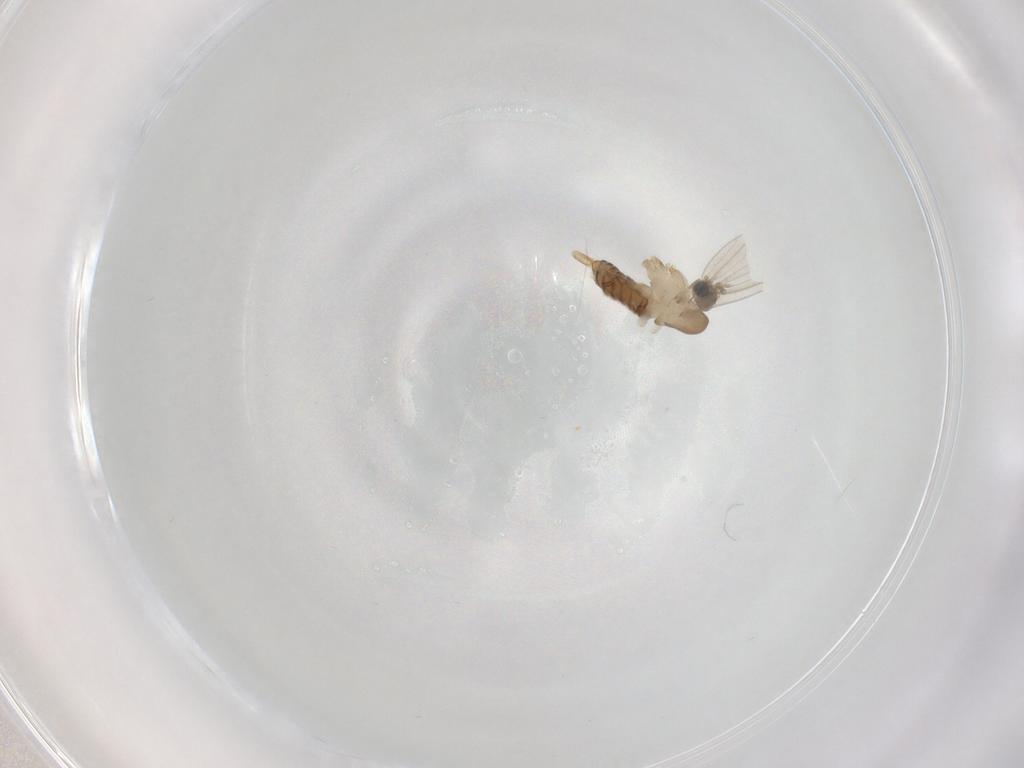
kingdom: Animalia
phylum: Arthropoda
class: Insecta
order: Diptera
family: Psychodidae
